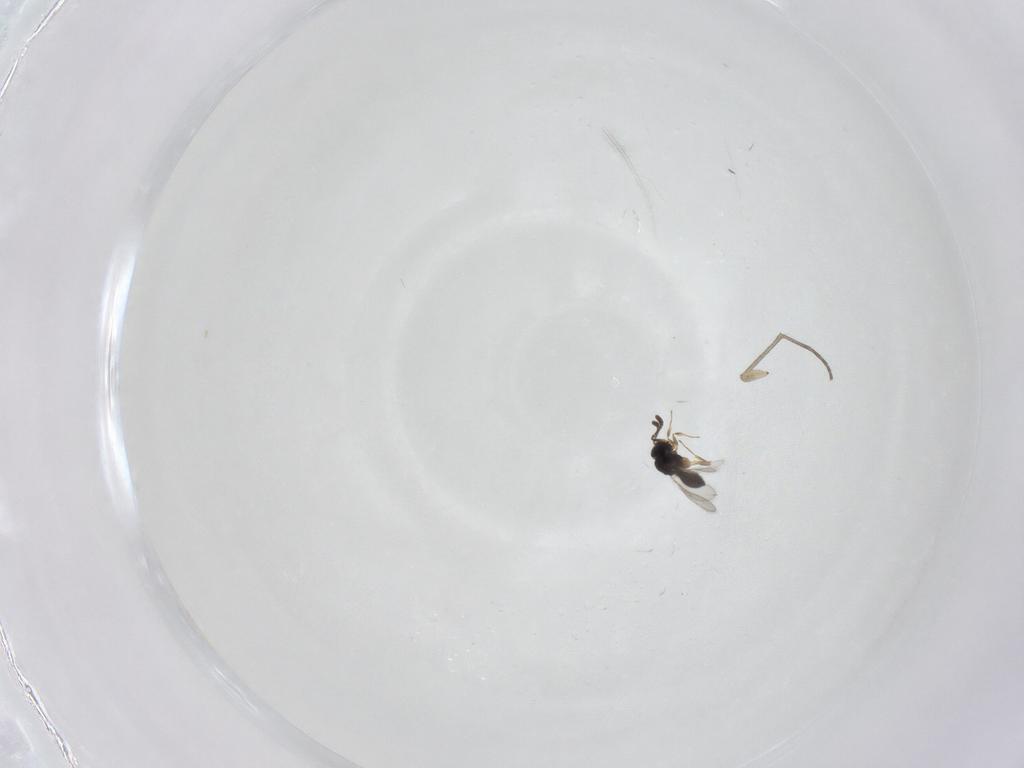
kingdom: Animalia
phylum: Arthropoda
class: Insecta
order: Hymenoptera
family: Scelionidae
